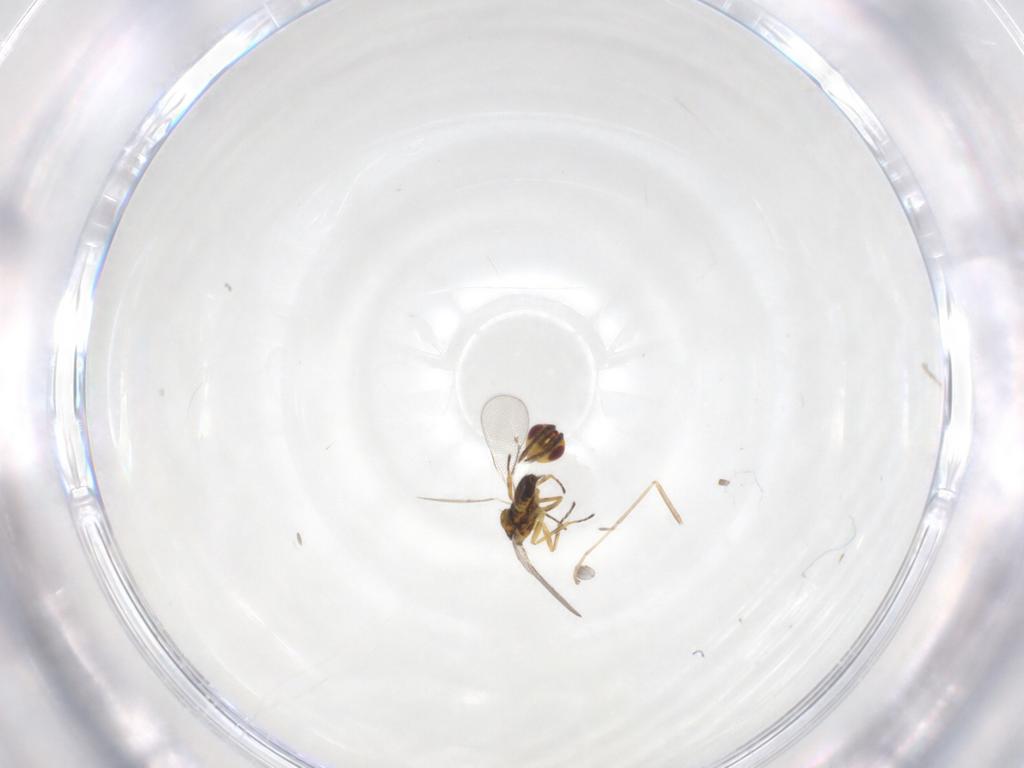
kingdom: Animalia
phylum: Arthropoda
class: Insecta
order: Hymenoptera
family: Eulophidae
